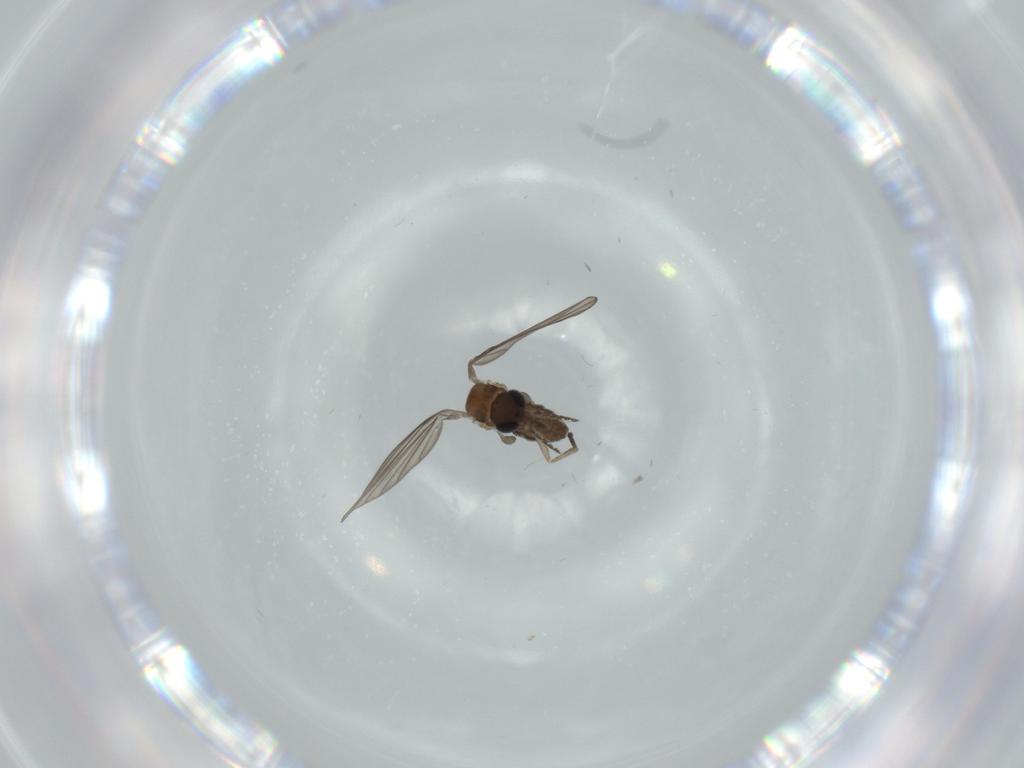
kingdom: Animalia
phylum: Arthropoda
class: Insecta
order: Diptera
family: Psychodidae
